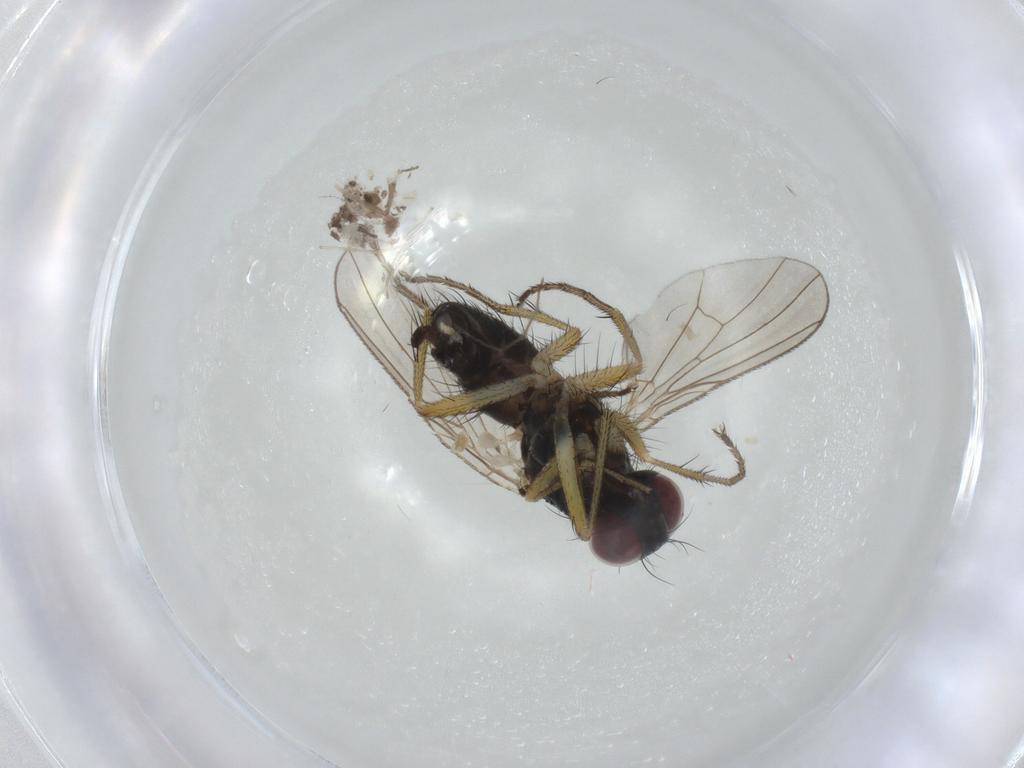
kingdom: Animalia
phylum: Arthropoda
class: Insecta
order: Diptera
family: Muscidae
